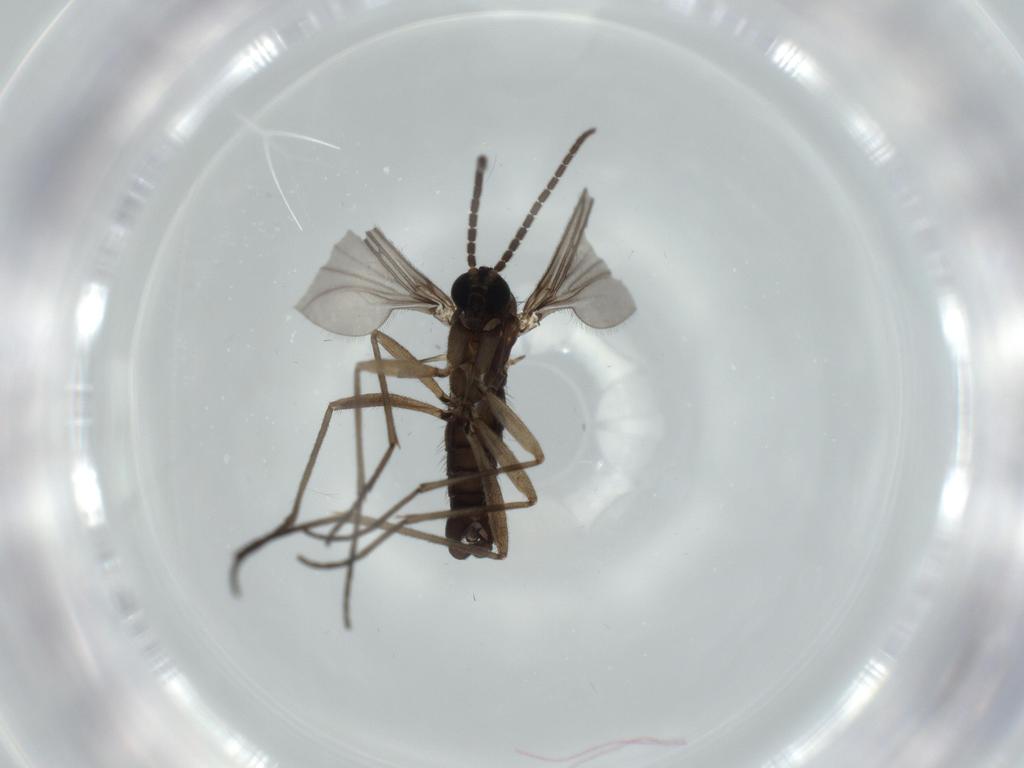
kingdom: Animalia
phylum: Arthropoda
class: Insecta
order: Diptera
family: Sciaridae
